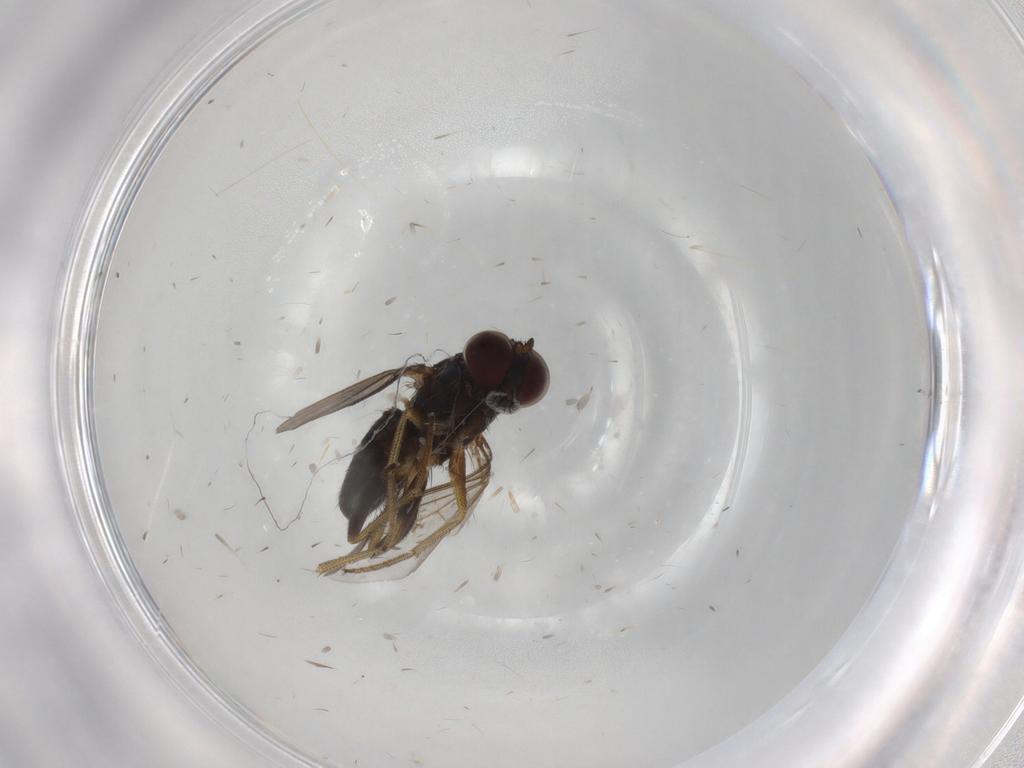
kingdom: Animalia
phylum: Arthropoda
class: Insecta
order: Diptera
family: Dolichopodidae
